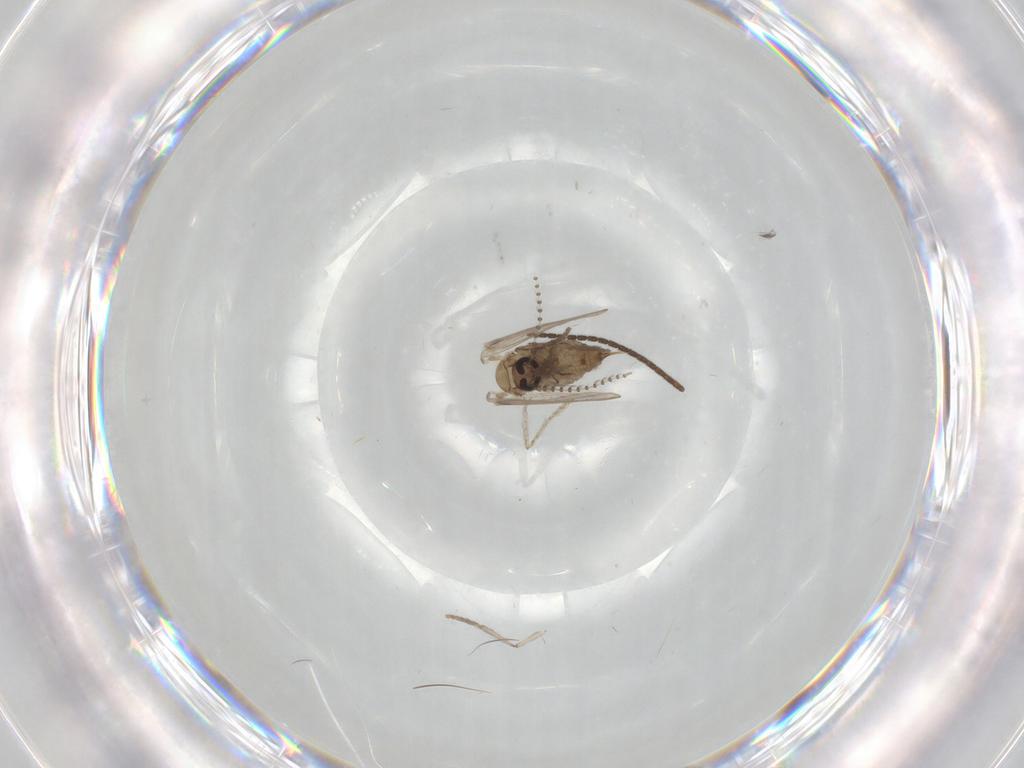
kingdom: Animalia
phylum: Arthropoda
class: Insecta
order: Diptera
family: Psychodidae
